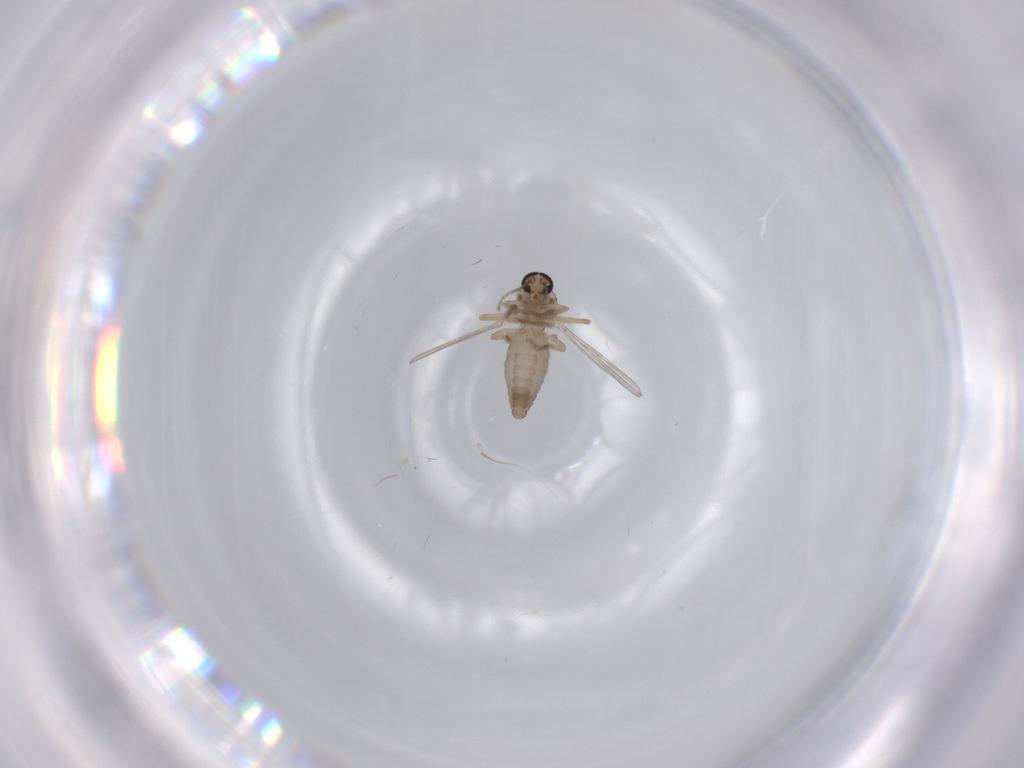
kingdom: Animalia
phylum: Arthropoda
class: Insecta
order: Diptera
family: Ceratopogonidae
